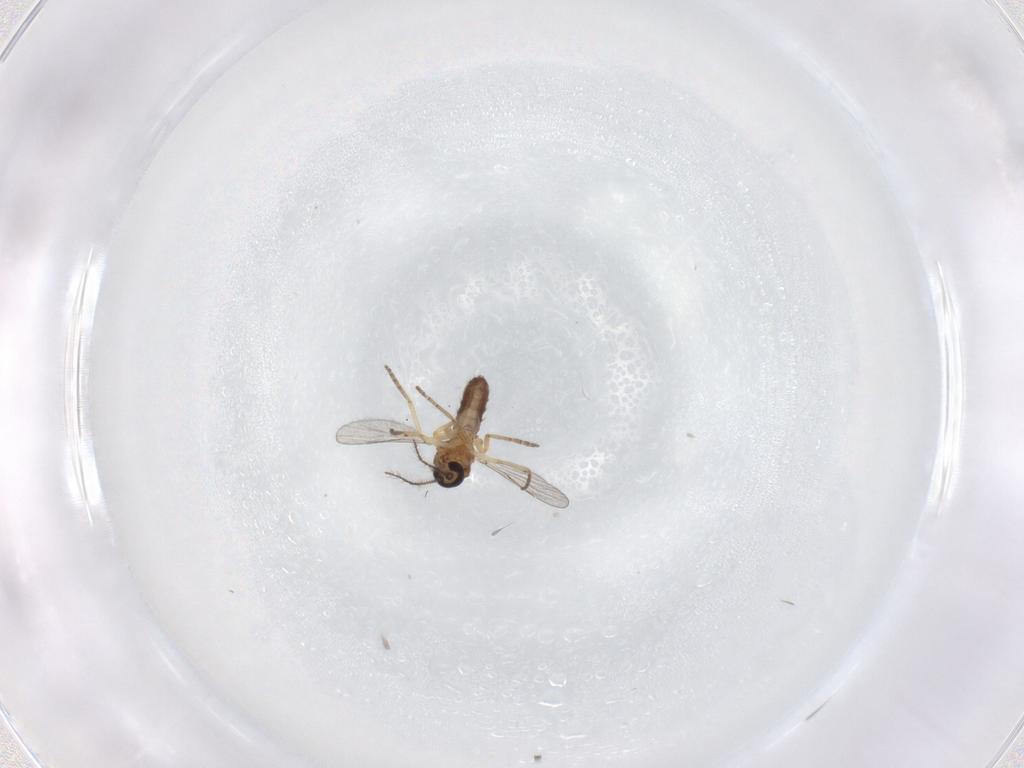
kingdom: Animalia
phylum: Arthropoda
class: Insecta
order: Diptera
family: Ceratopogonidae
